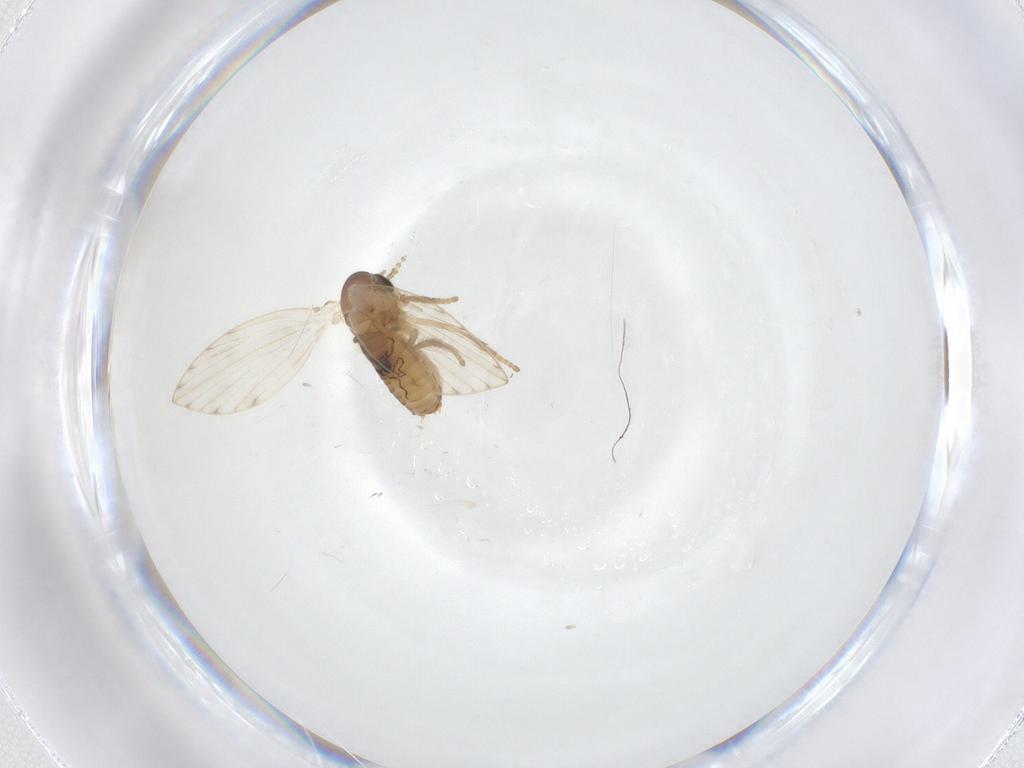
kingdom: Animalia
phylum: Arthropoda
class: Insecta
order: Diptera
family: Psychodidae
